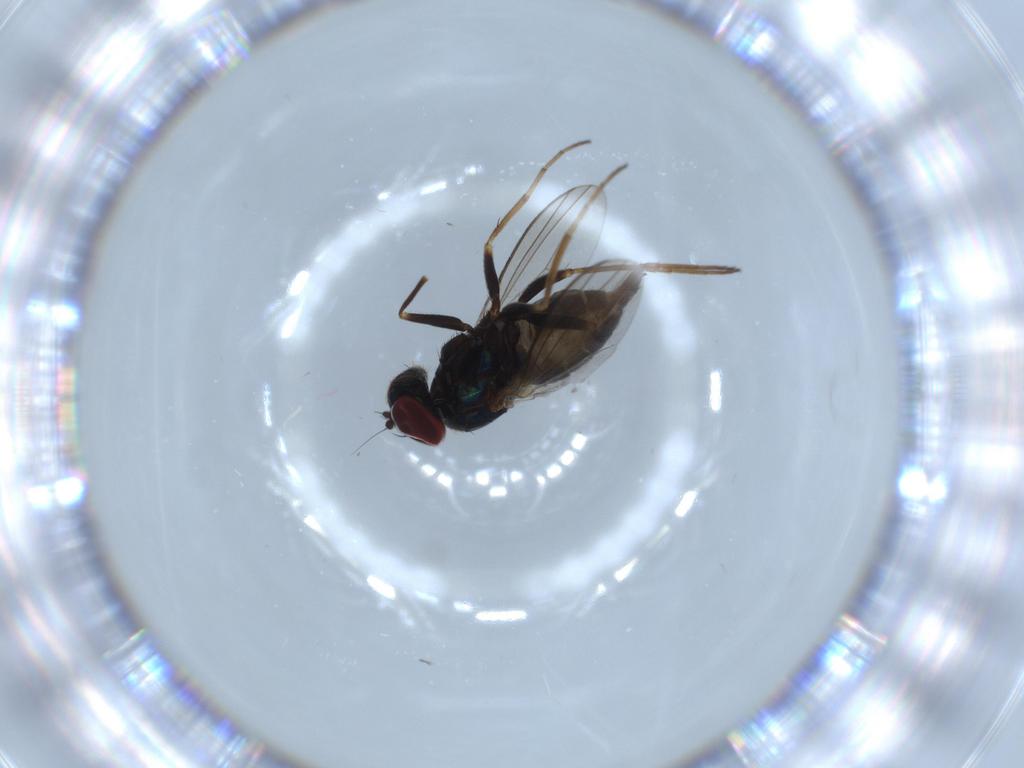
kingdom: Animalia
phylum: Arthropoda
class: Insecta
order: Diptera
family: Dolichopodidae
